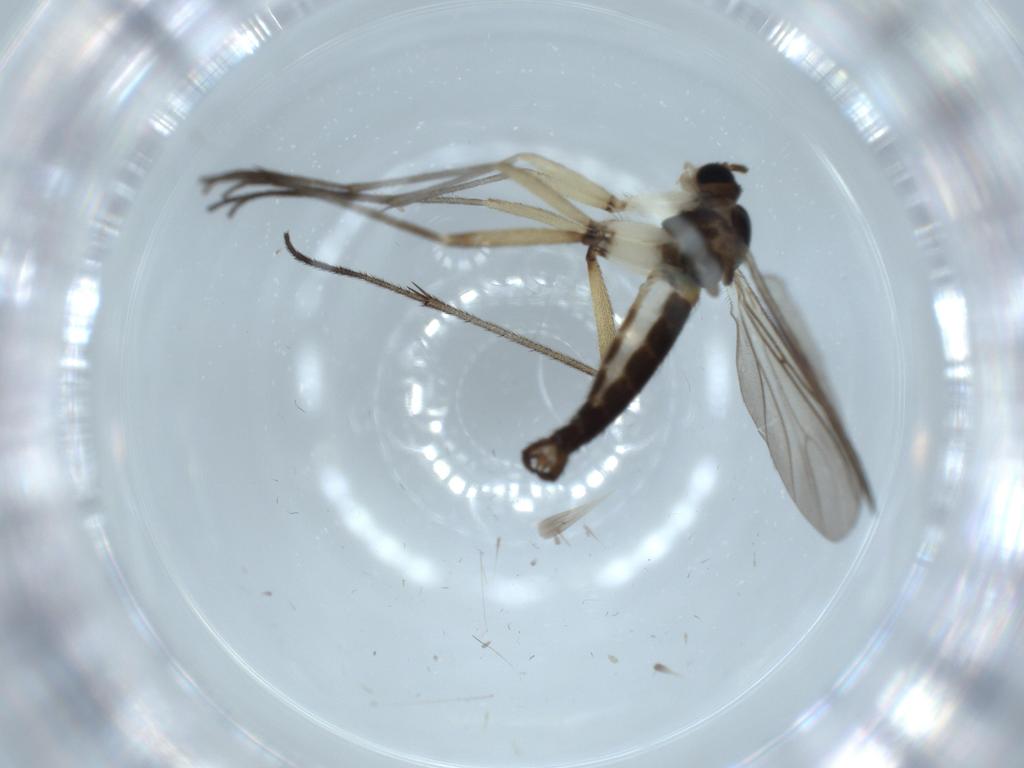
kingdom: Animalia
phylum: Arthropoda
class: Insecta
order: Diptera
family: Sciaridae
